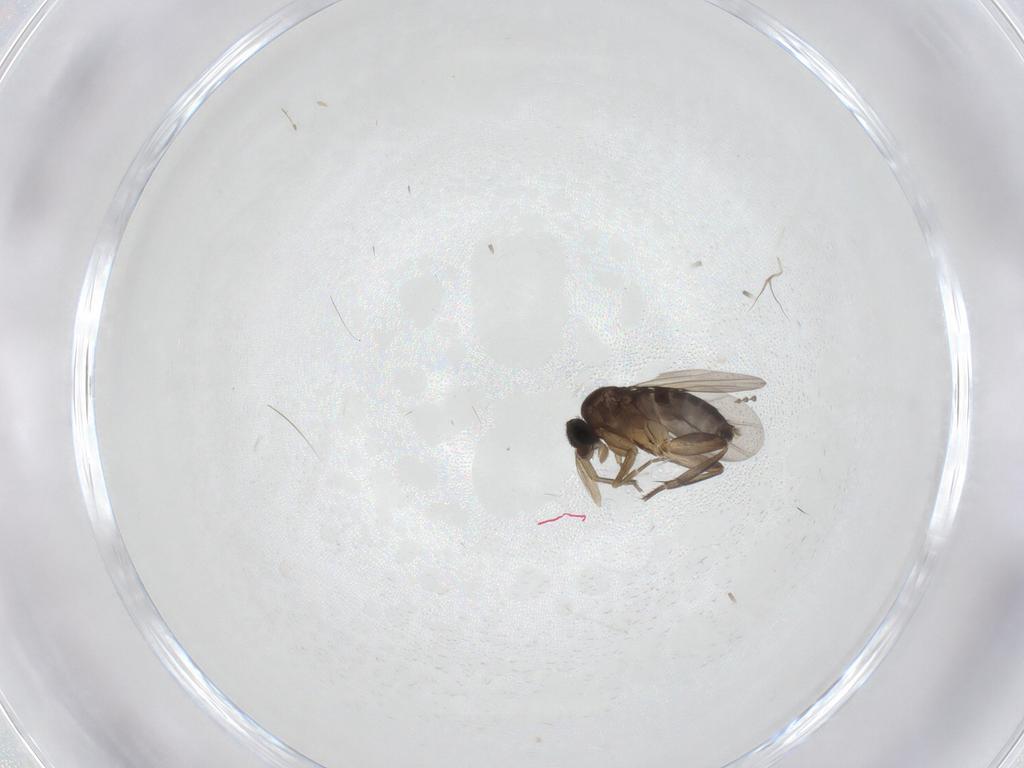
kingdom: Animalia
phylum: Arthropoda
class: Insecta
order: Diptera
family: Phoridae
